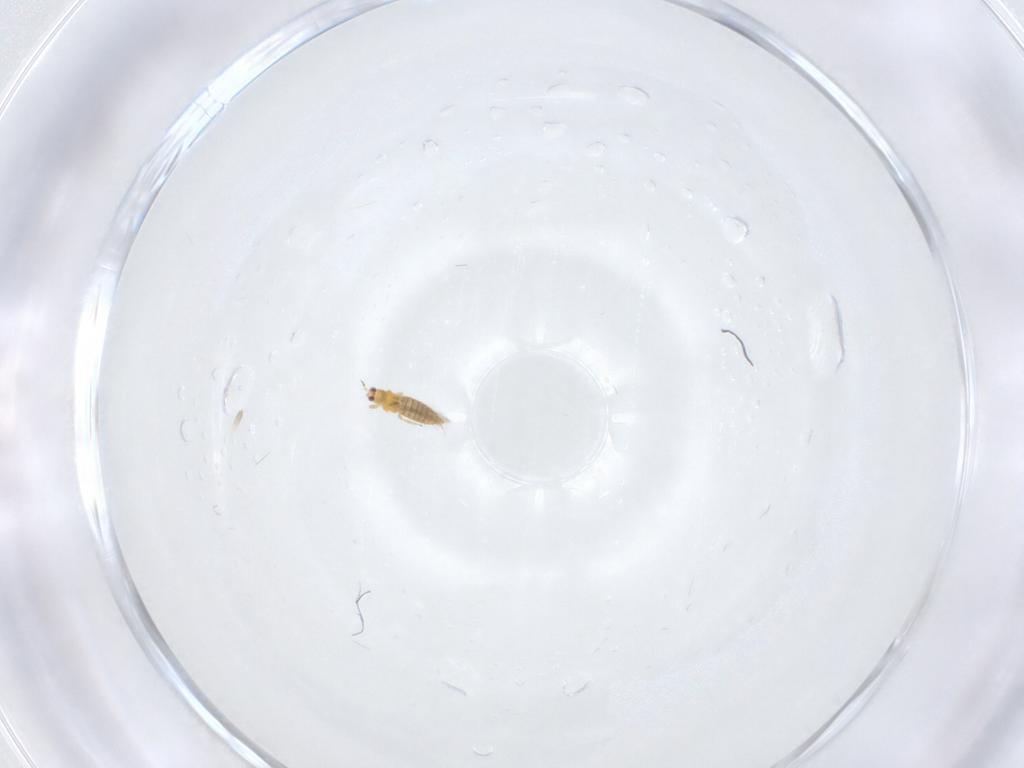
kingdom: Animalia
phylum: Arthropoda
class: Insecta
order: Thysanoptera
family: Thripidae
